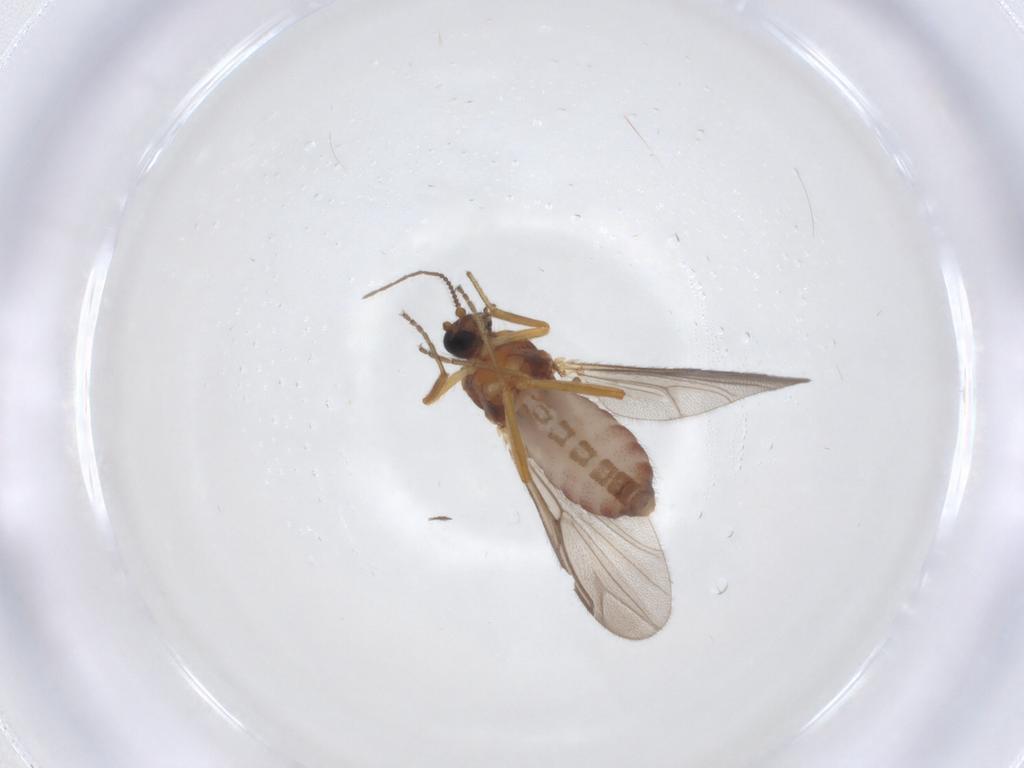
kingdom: Animalia
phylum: Arthropoda
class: Insecta
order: Diptera
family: Ceratopogonidae
